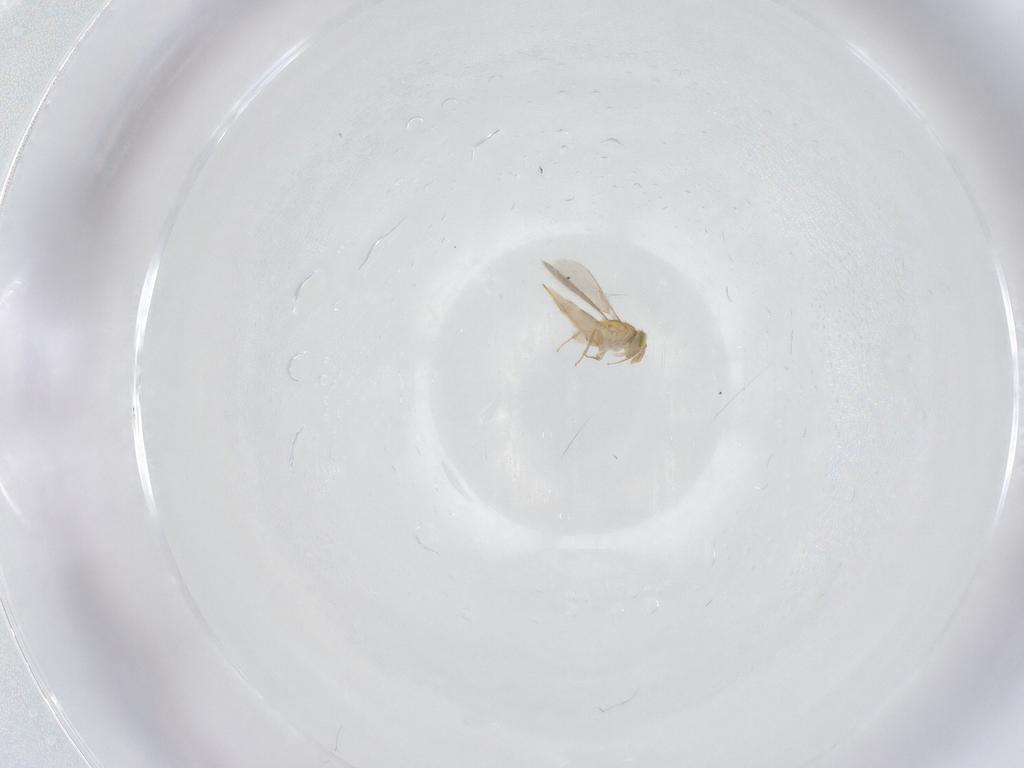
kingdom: Animalia
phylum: Arthropoda
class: Insecta
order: Hymenoptera
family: Aphelinidae
